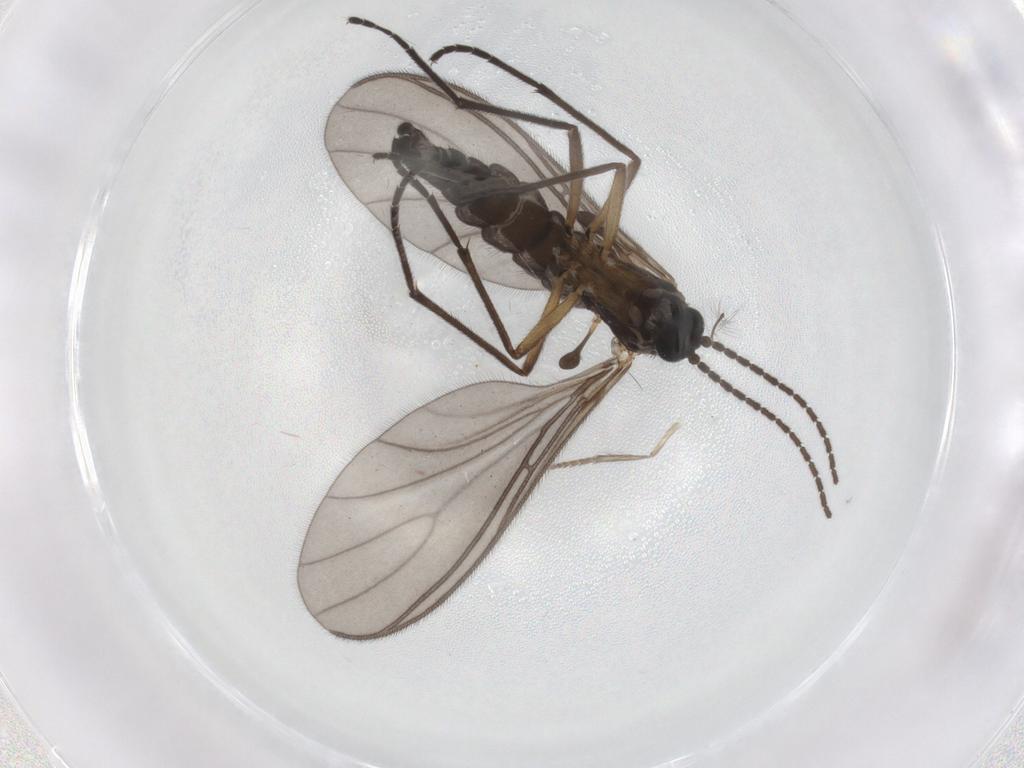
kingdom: Animalia
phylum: Arthropoda
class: Insecta
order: Diptera
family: Sciaridae
